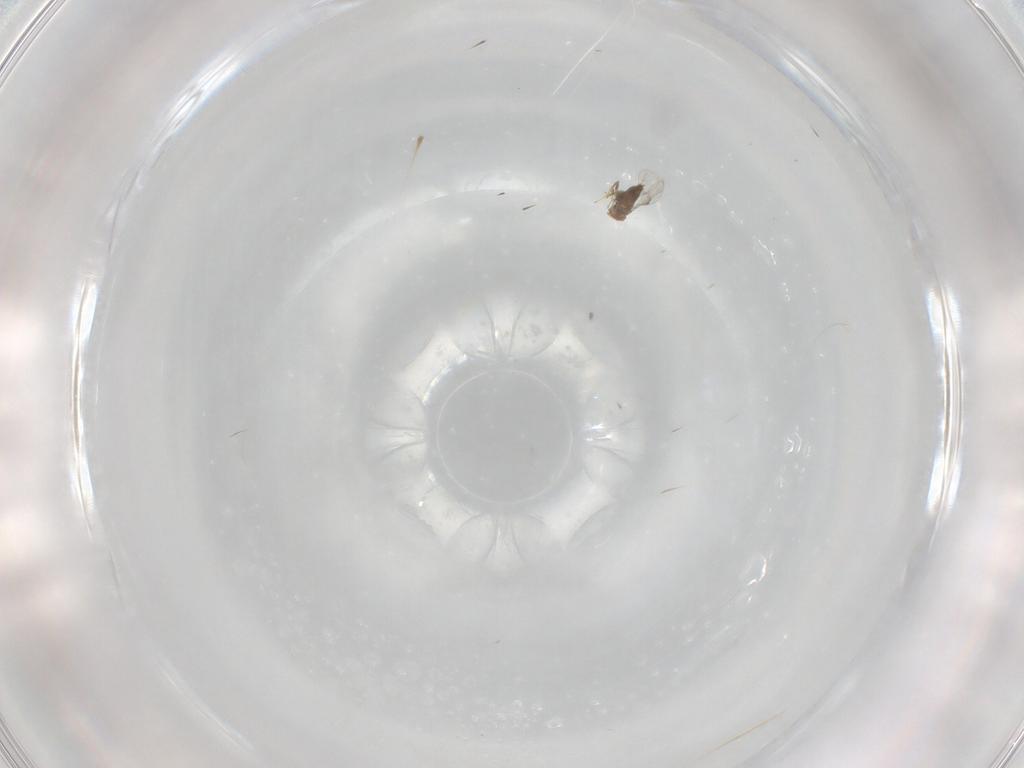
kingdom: Animalia
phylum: Arthropoda
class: Insecta
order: Hymenoptera
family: Trichogrammatidae
